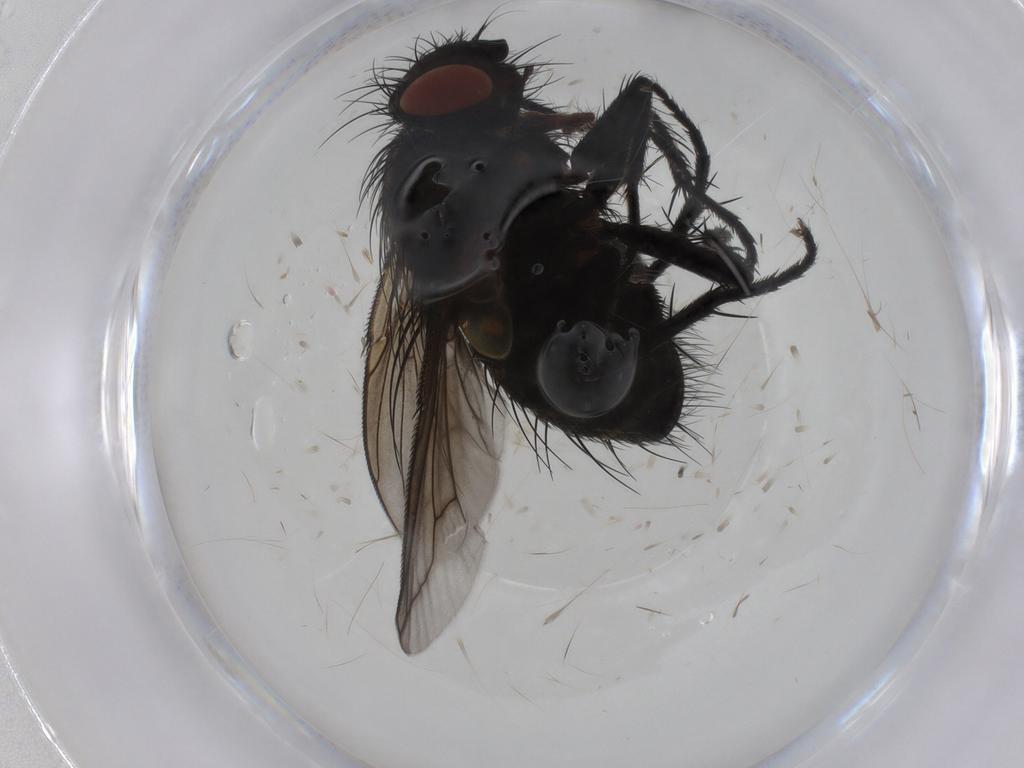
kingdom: Animalia
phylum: Arthropoda
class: Insecta
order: Diptera
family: Tachinidae
